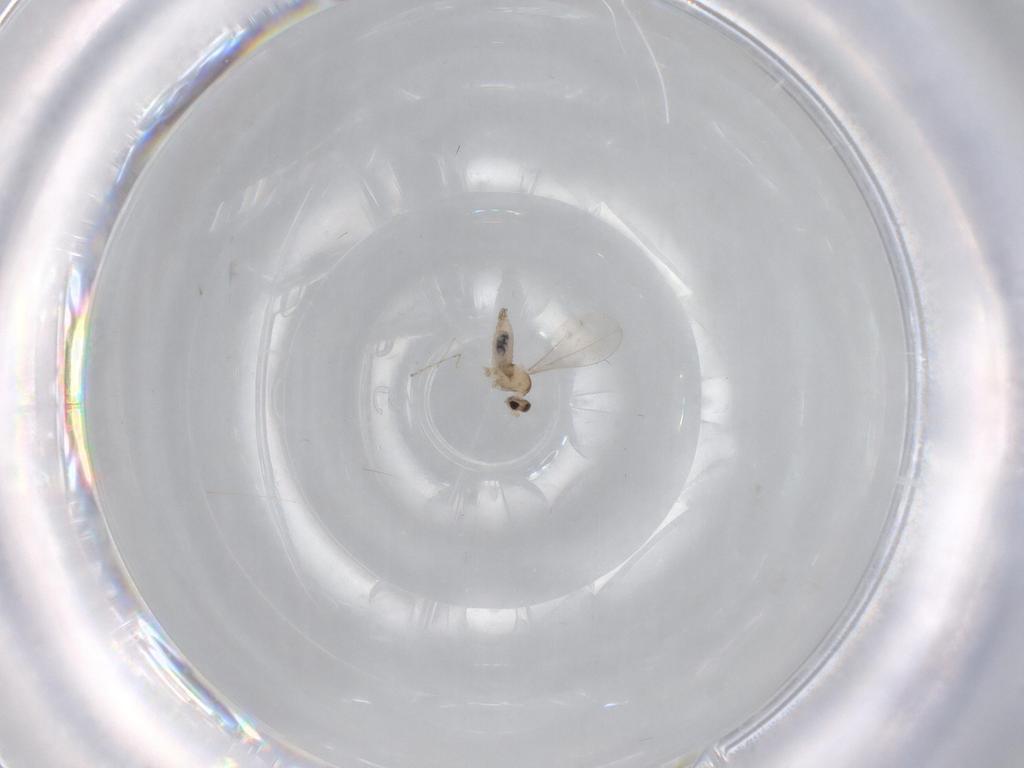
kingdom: Animalia
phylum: Arthropoda
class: Insecta
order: Diptera
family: Cecidomyiidae
